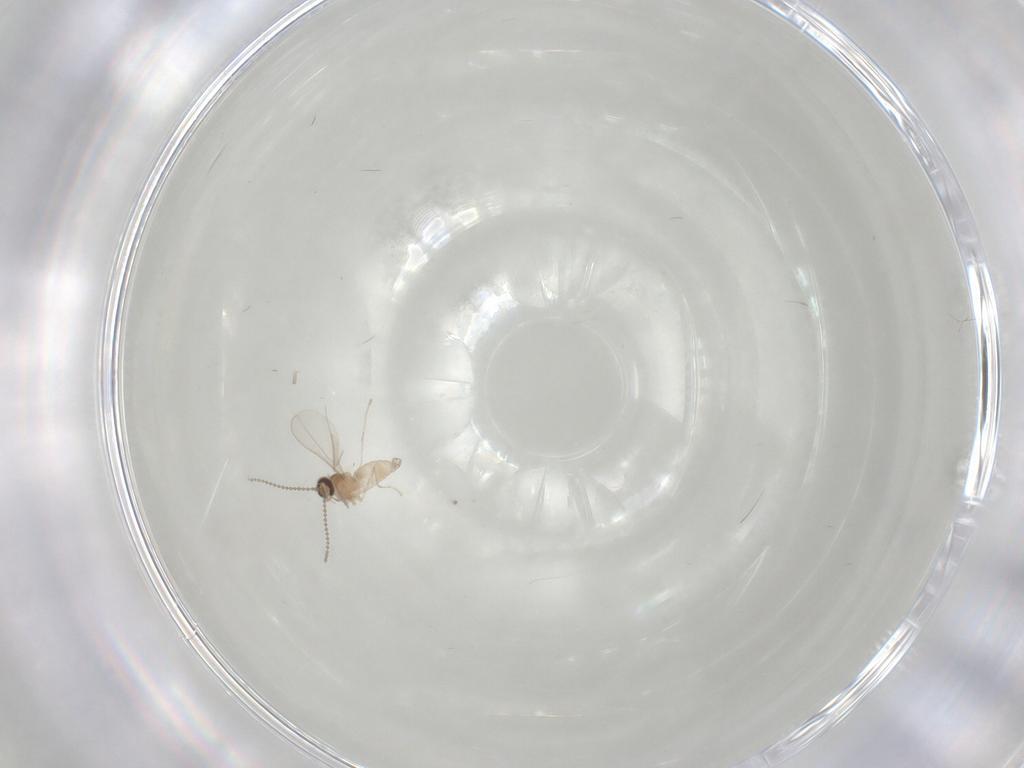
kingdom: Animalia
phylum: Arthropoda
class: Insecta
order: Diptera
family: Cecidomyiidae
